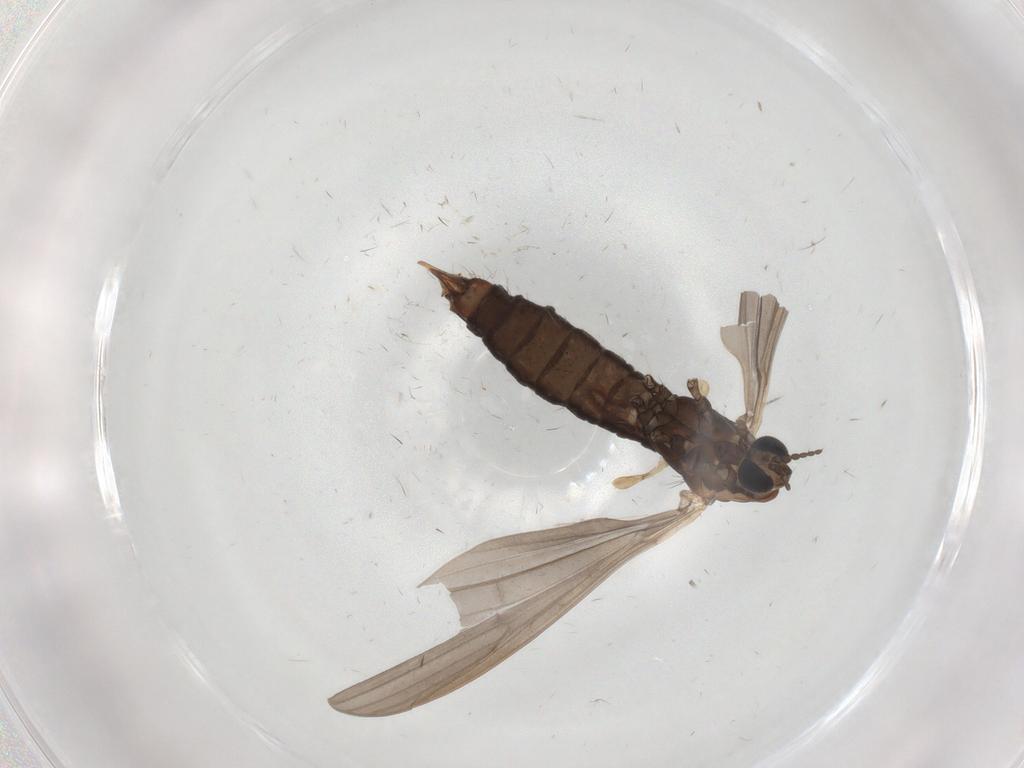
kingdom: Animalia
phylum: Arthropoda
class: Insecta
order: Diptera
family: Limoniidae
